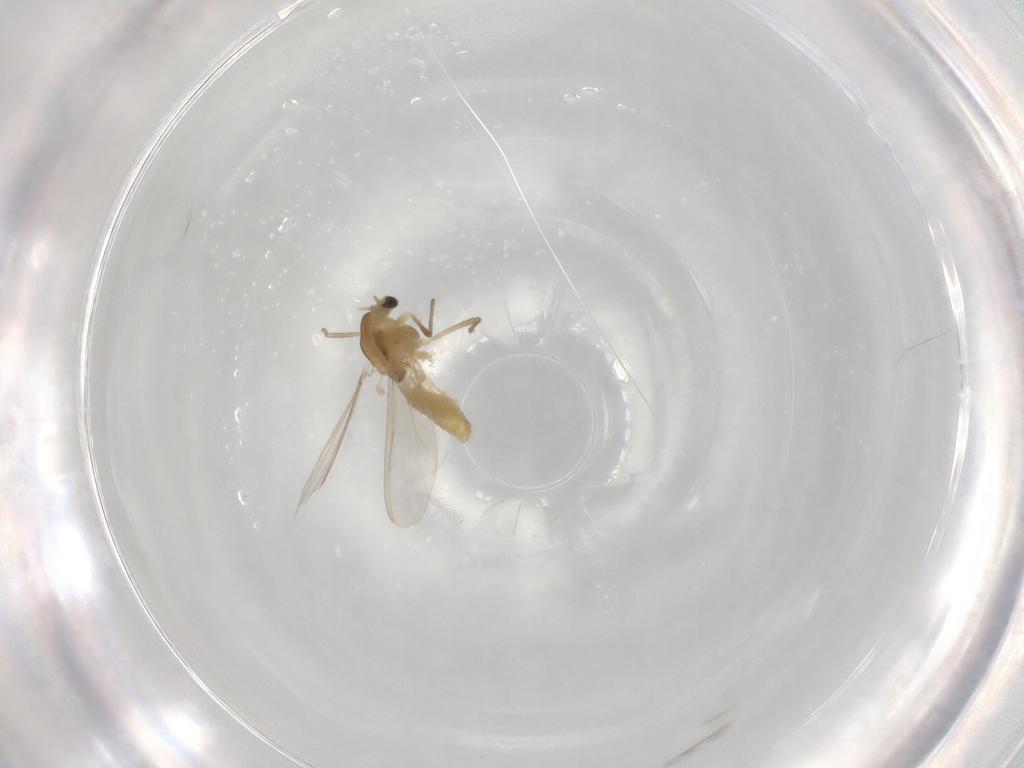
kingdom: Animalia
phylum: Arthropoda
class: Insecta
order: Diptera
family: Chironomidae
